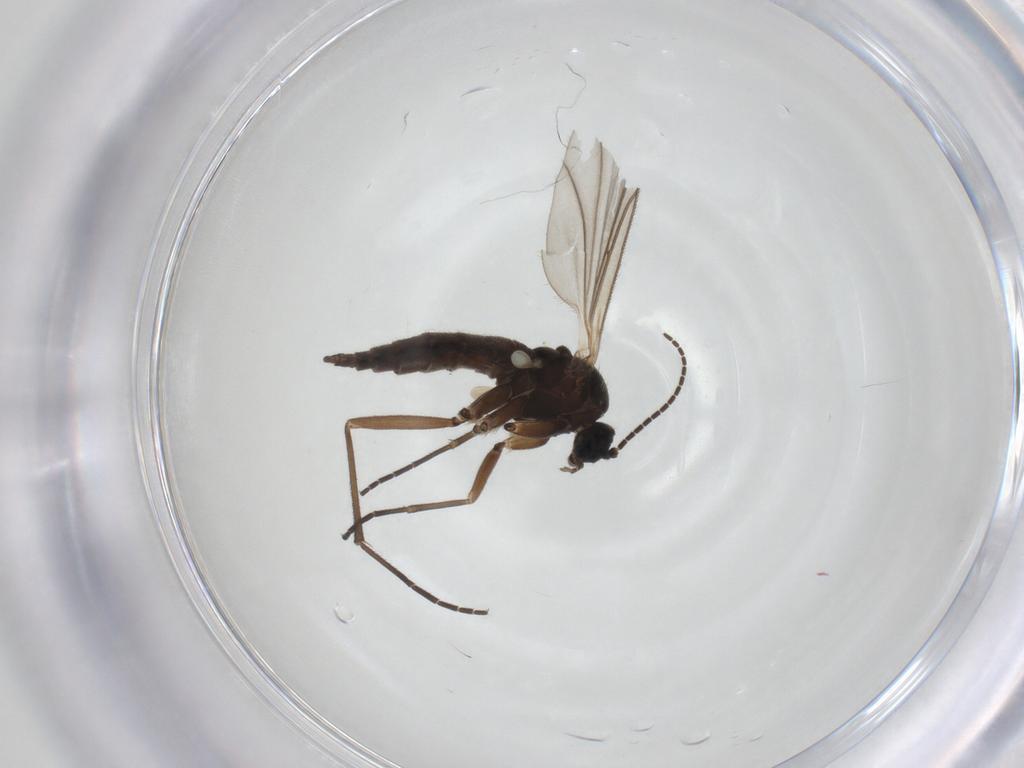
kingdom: Animalia
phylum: Arthropoda
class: Insecta
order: Diptera
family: Sciaridae
